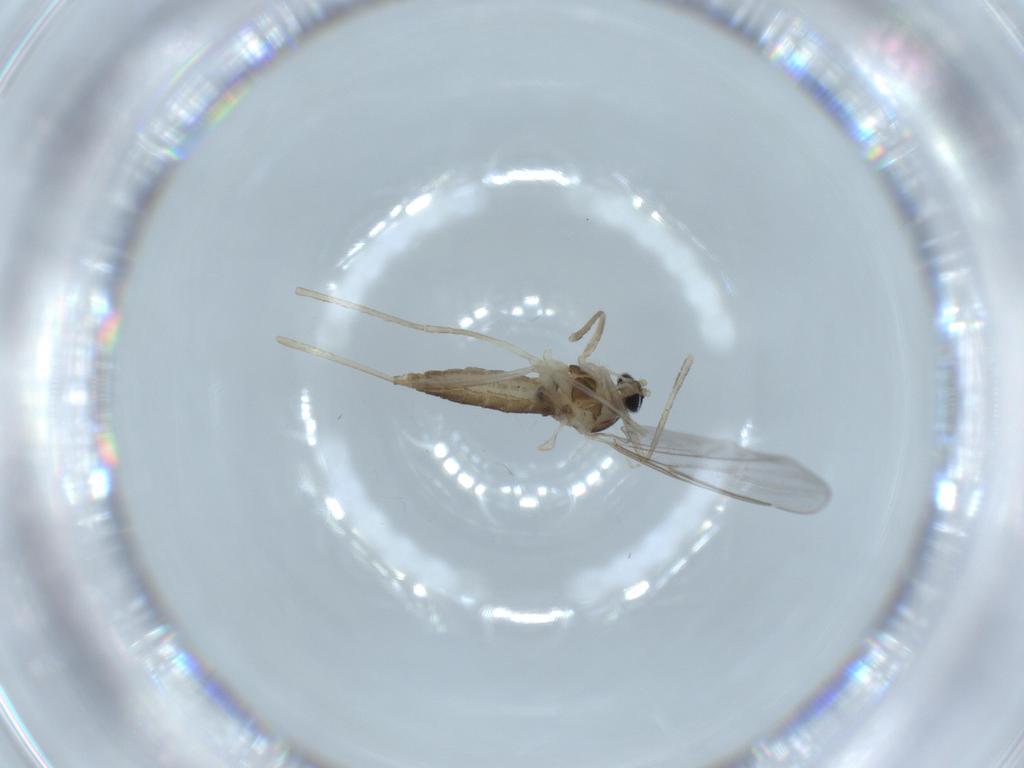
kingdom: Animalia
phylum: Arthropoda
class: Insecta
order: Diptera
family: Cecidomyiidae
